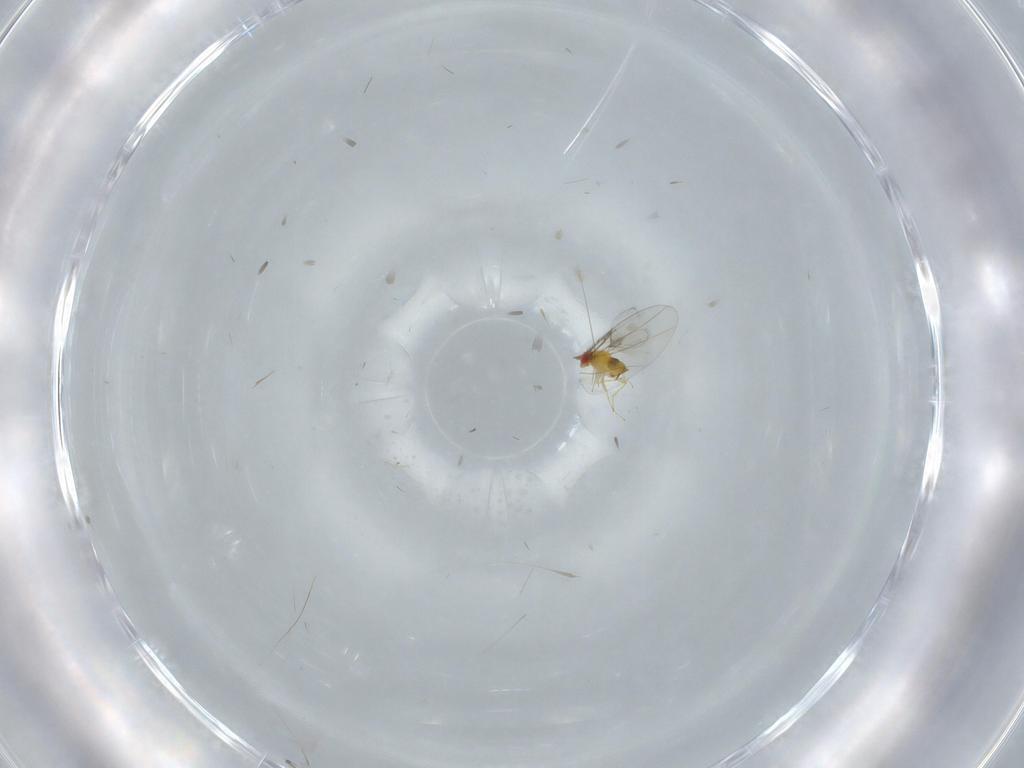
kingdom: Animalia
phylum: Arthropoda
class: Insecta
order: Hymenoptera
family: Trichogrammatidae
